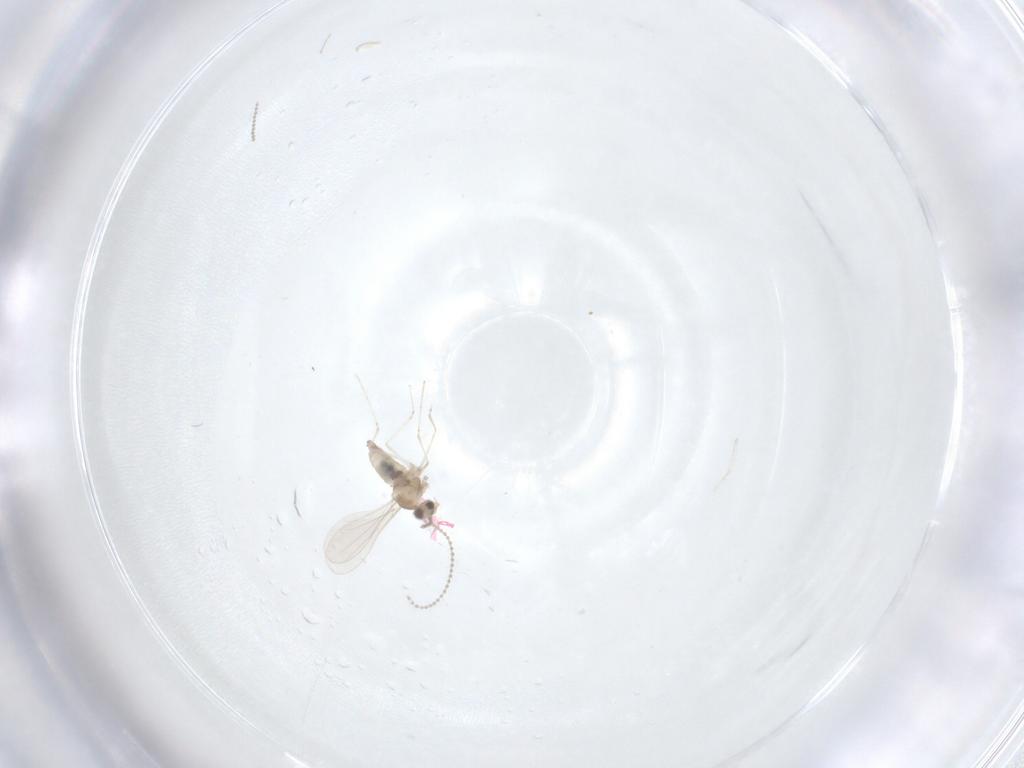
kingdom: Animalia
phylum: Arthropoda
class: Insecta
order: Diptera
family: Cecidomyiidae
